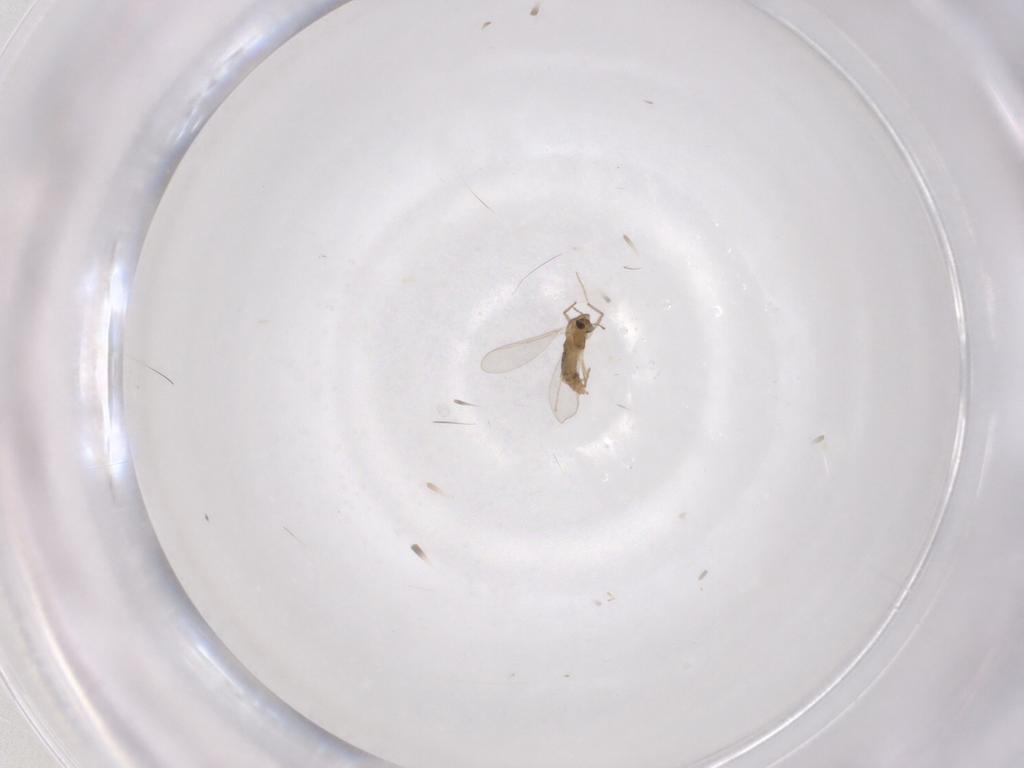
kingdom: Animalia
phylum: Arthropoda
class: Insecta
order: Diptera
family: Chironomidae
